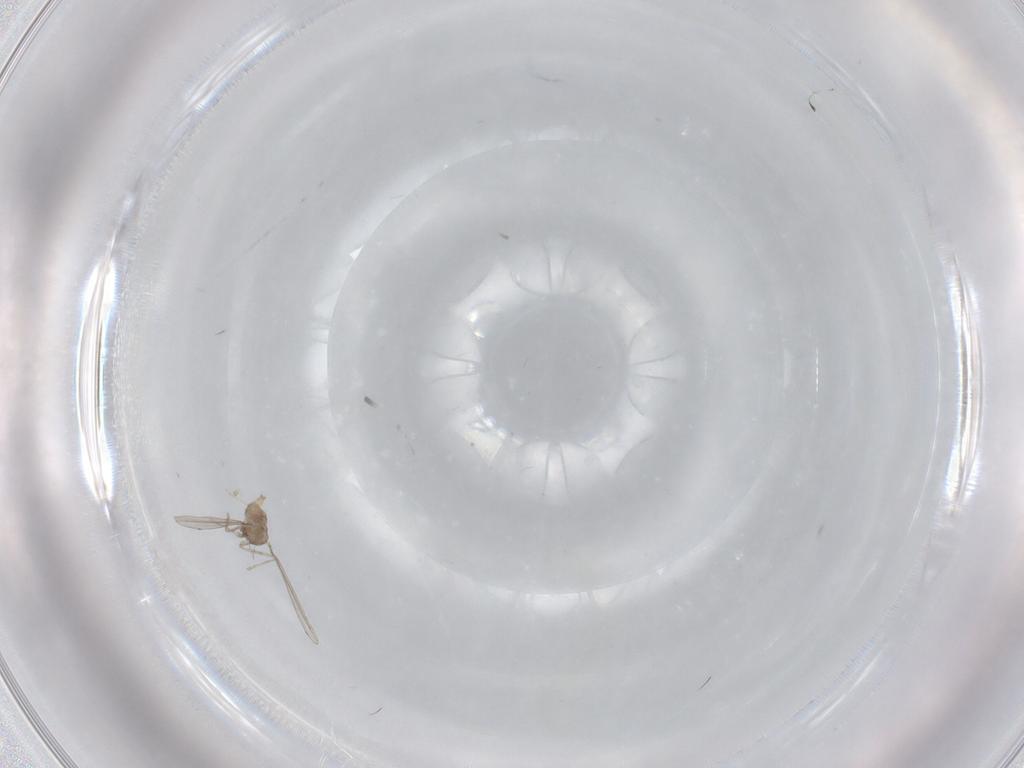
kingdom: Animalia
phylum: Arthropoda
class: Insecta
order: Diptera
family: Cecidomyiidae
